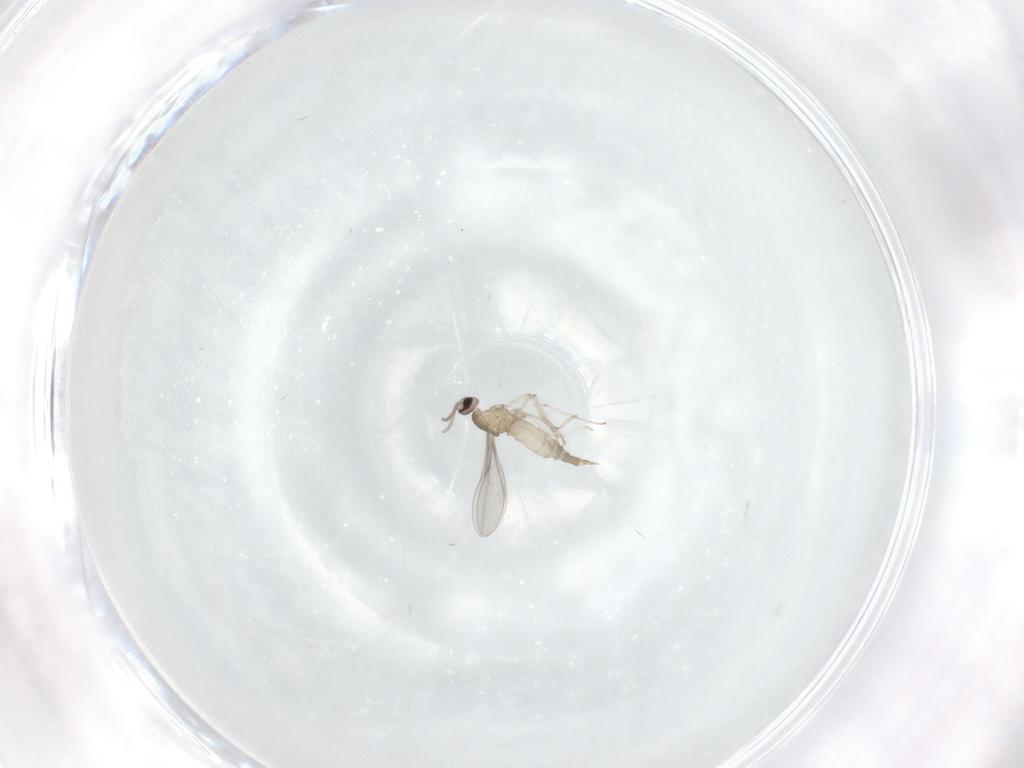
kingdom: Animalia
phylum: Arthropoda
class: Insecta
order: Diptera
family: Cecidomyiidae
